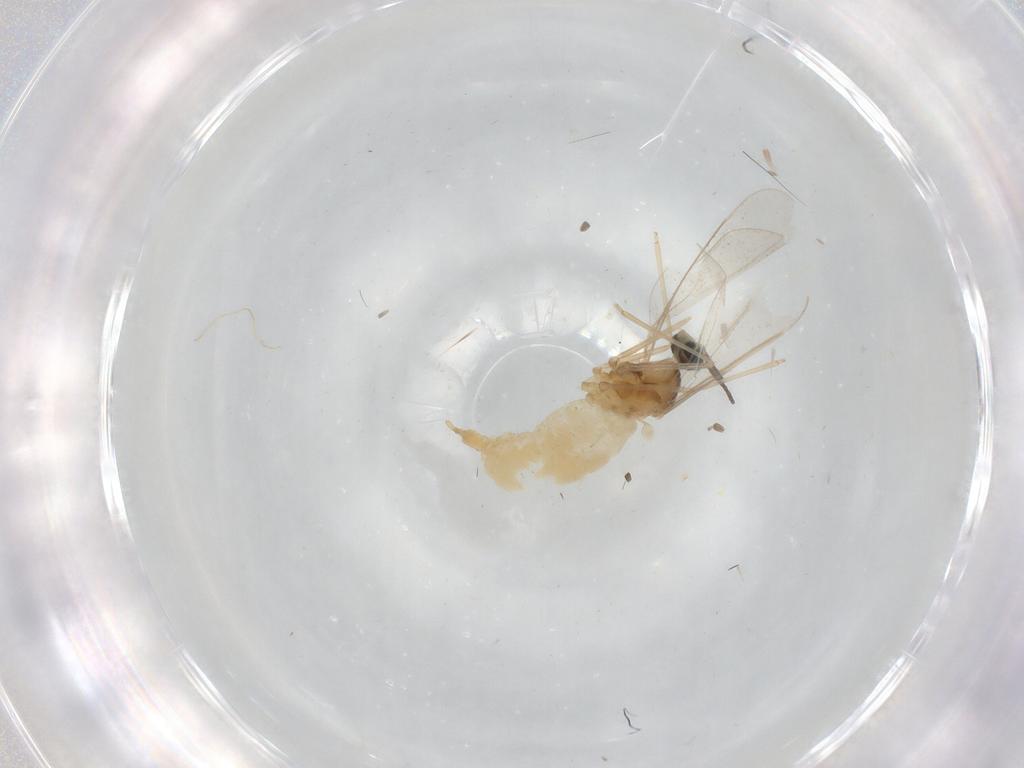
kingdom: Animalia
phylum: Arthropoda
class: Insecta
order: Diptera
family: Cecidomyiidae
